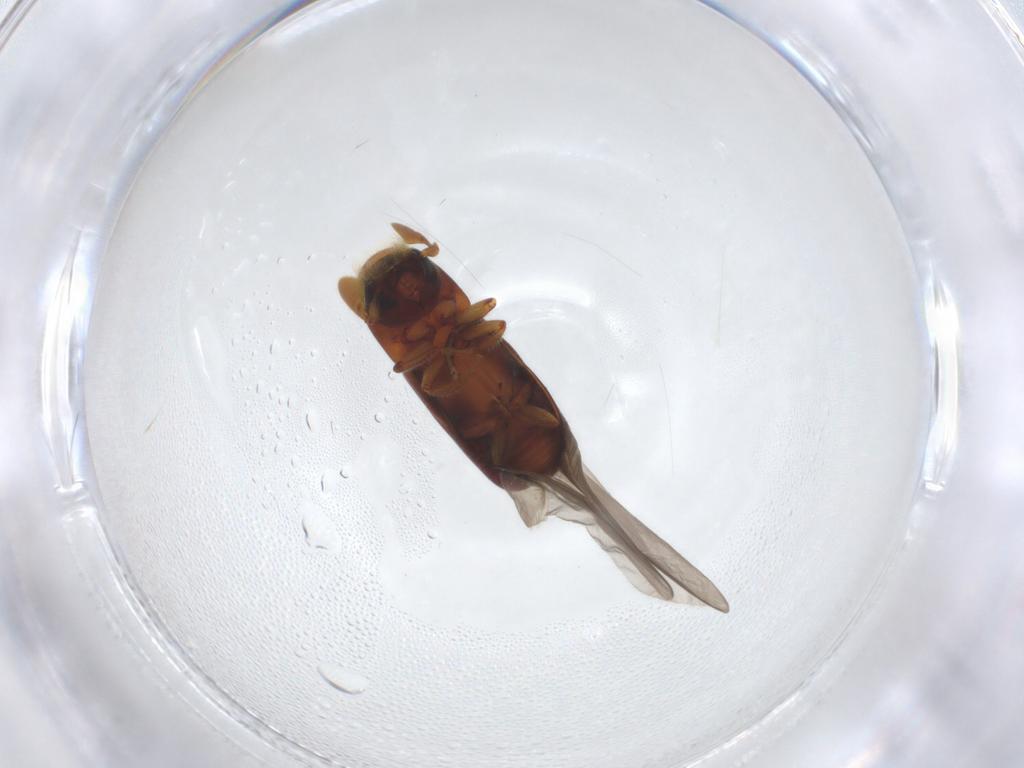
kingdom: Animalia
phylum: Arthropoda
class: Insecta
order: Coleoptera
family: Curculionidae
